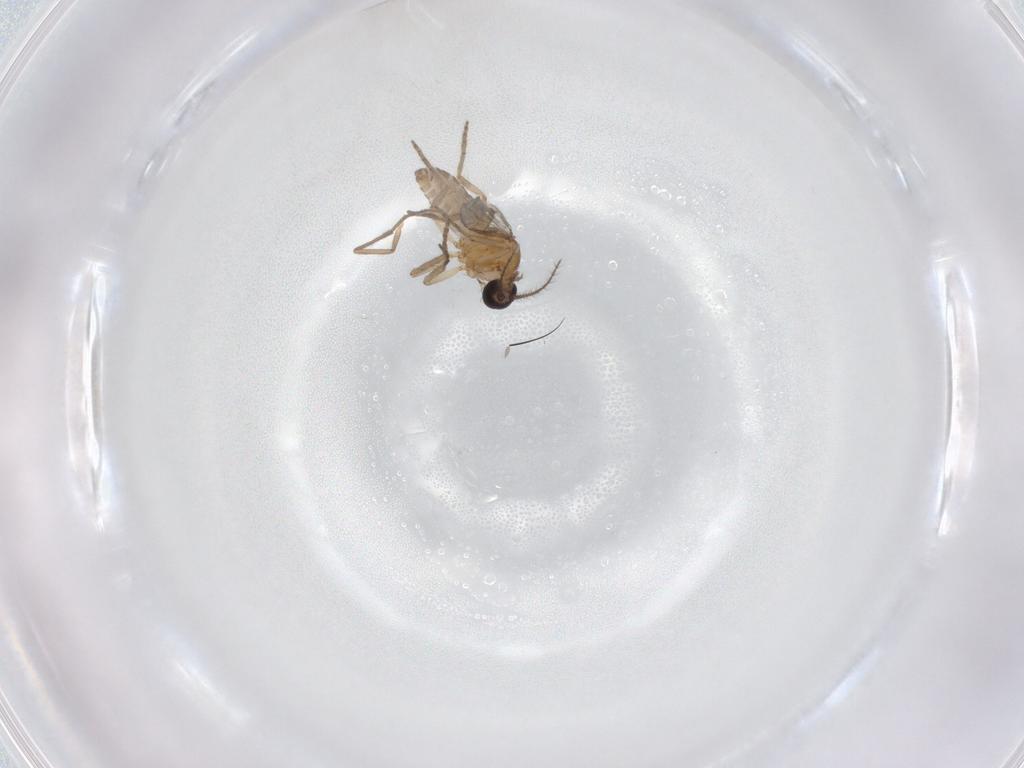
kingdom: Animalia
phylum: Arthropoda
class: Insecta
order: Diptera
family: Ceratopogonidae
